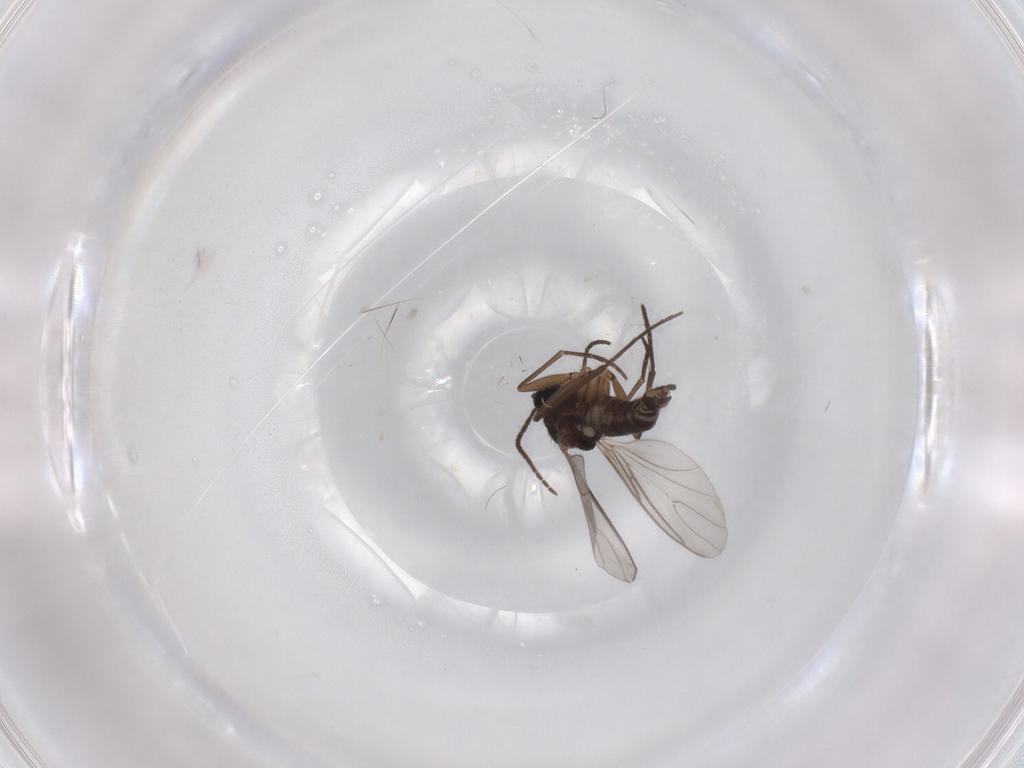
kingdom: Animalia
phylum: Arthropoda
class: Insecta
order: Diptera
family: Sciaridae
